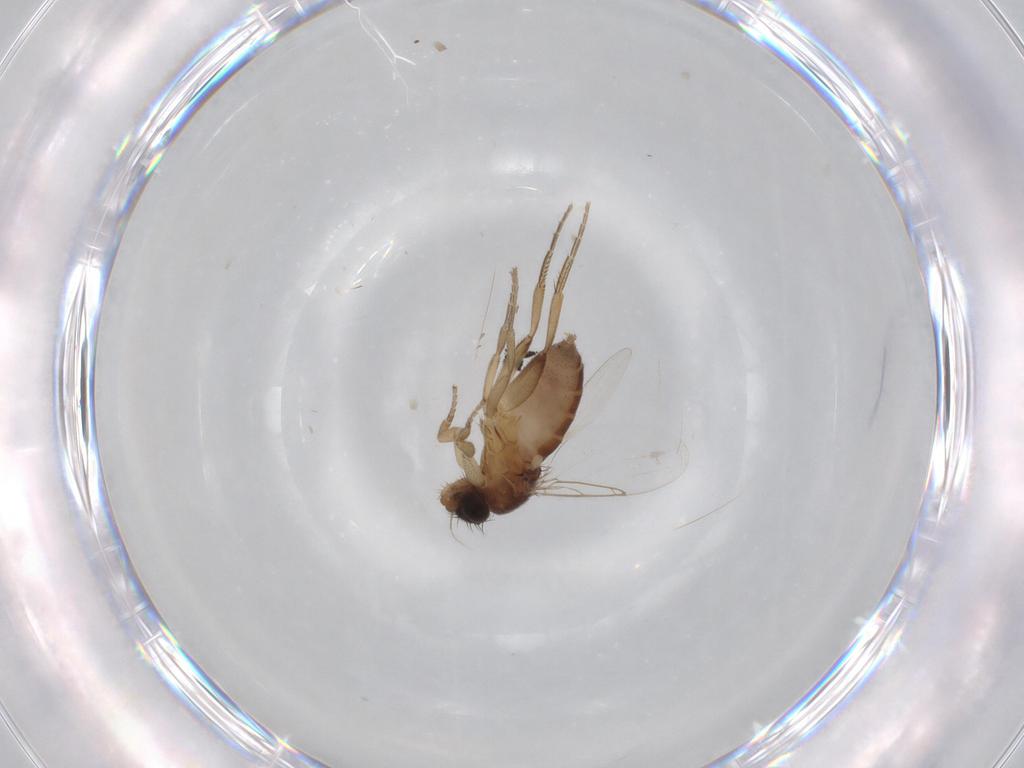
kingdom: Animalia
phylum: Arthropoda
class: Insecta
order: Diptera
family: Phoridae
